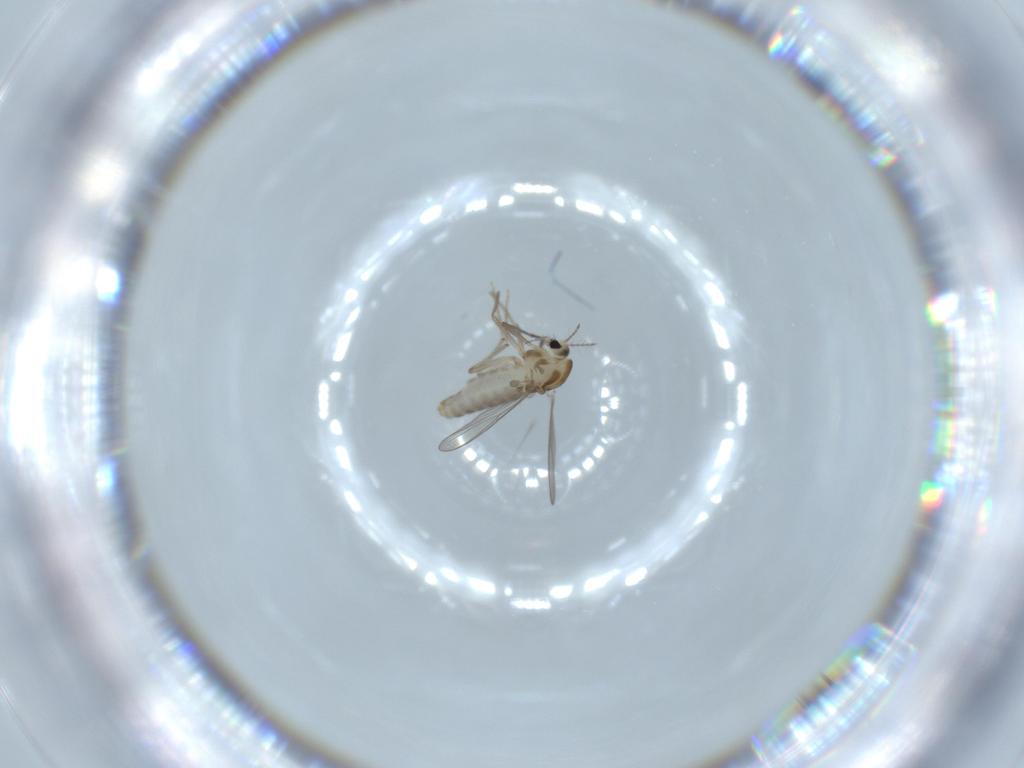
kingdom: Animalia
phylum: Arthropoda
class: Insecta
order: Diptera
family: Chironomidae
